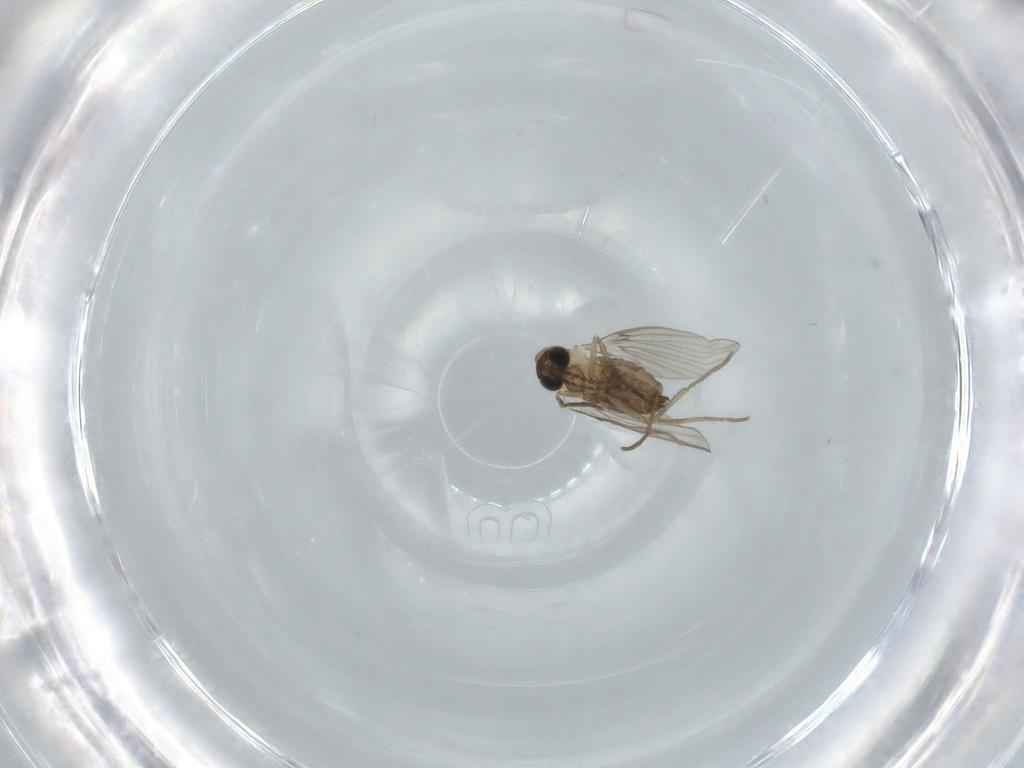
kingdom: Animalia
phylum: Arthropoda
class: Insecta
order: Diptera
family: Psychodidae
